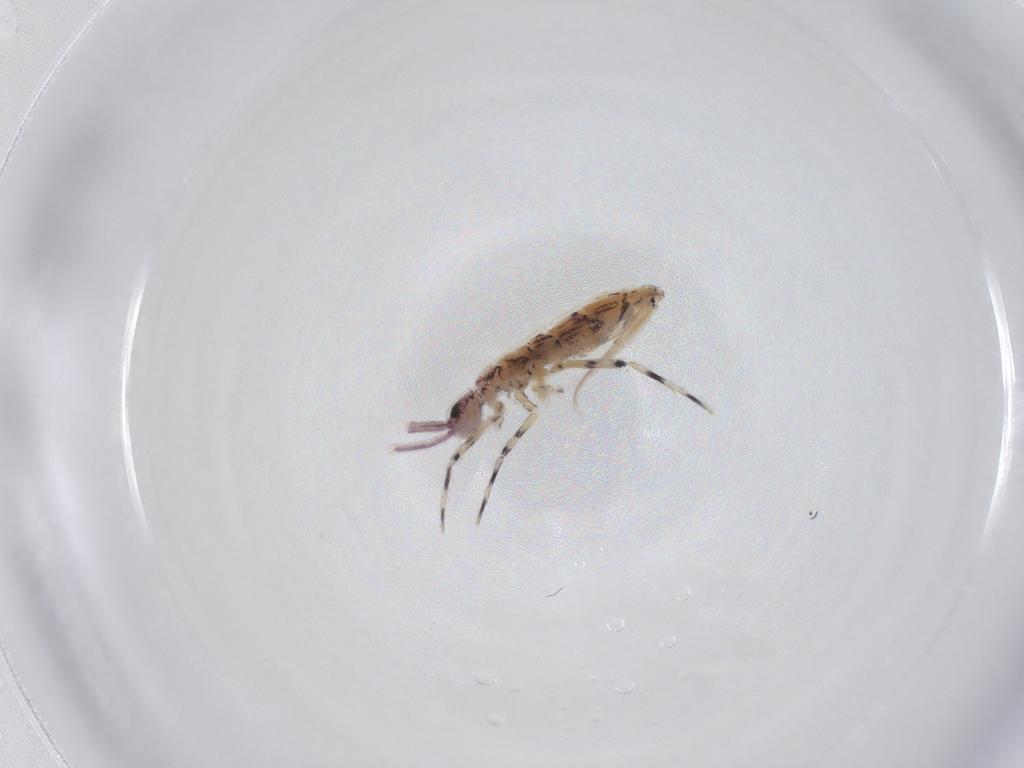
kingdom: Animalia
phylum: Arthropoda
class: Collembola
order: Entomobryomorpha
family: Entomobryidae
